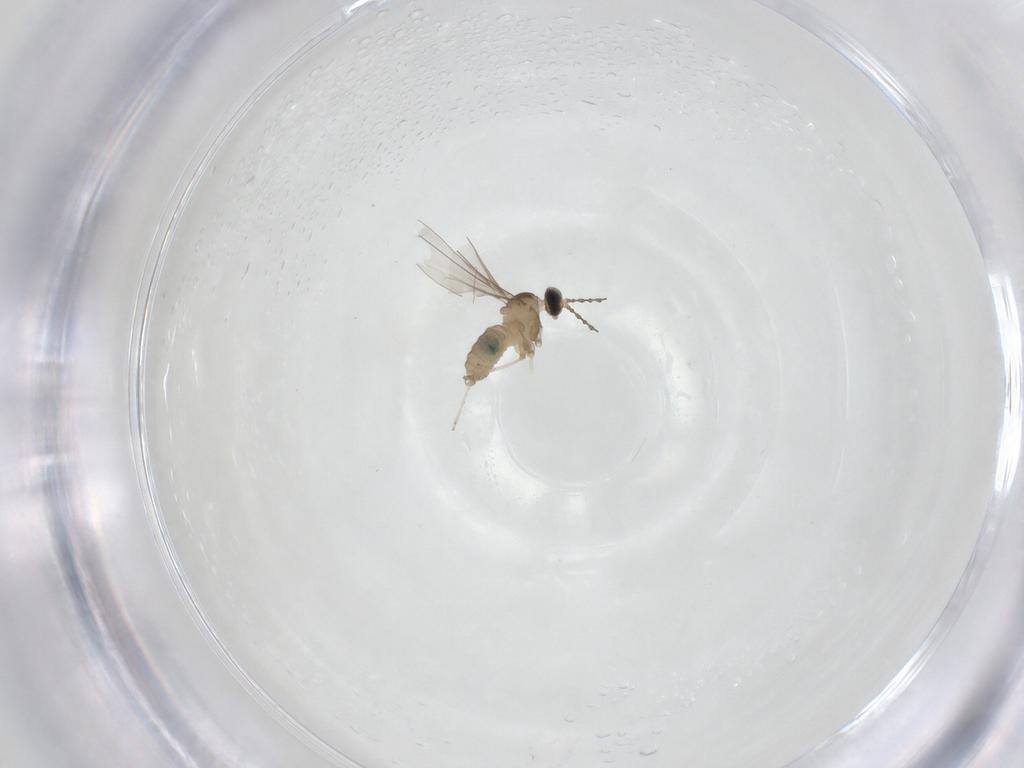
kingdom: Animalia
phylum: Arthropoda
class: Insecta
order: Diptera
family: Cecidomyiidae
